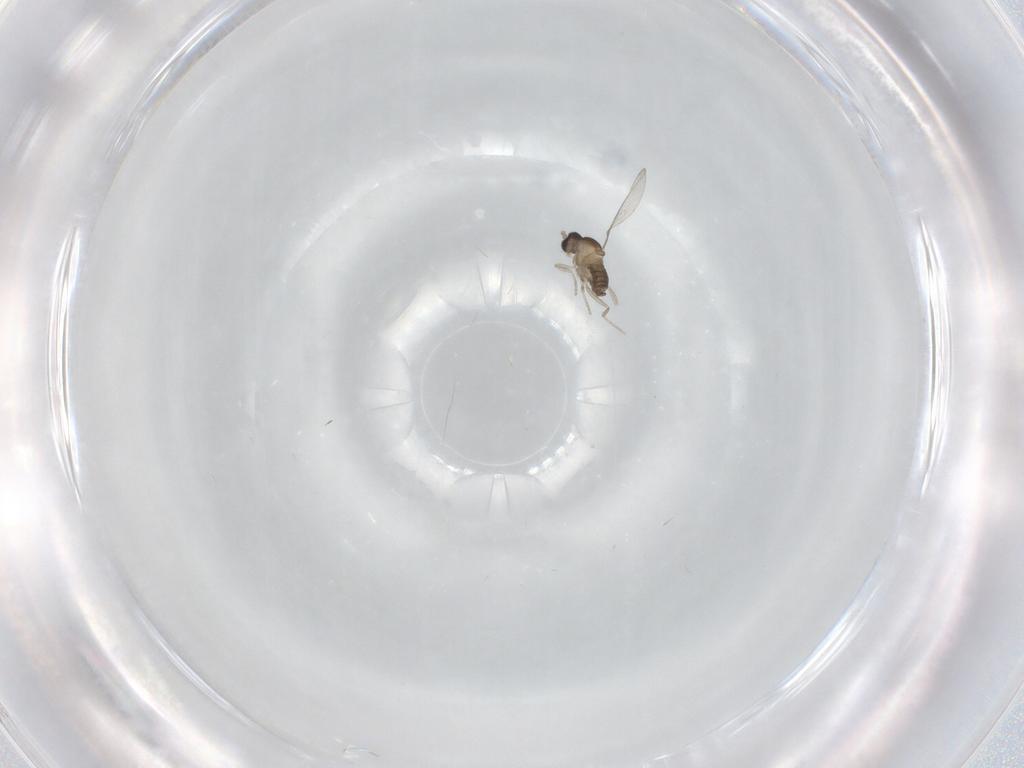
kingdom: Animalia
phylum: Arthropoda
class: Insecta
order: Diptera
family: Cecidomyiidae
